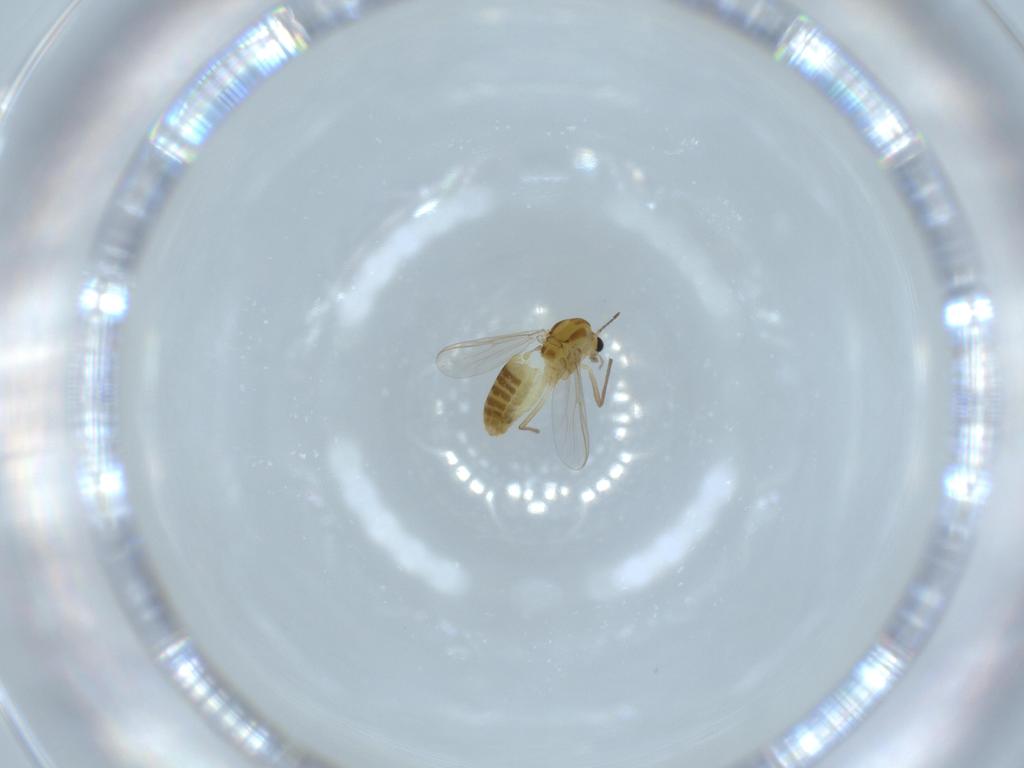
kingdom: Animalia
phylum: Arthropoda
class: Insecta
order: Diptera
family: Chironomidae
